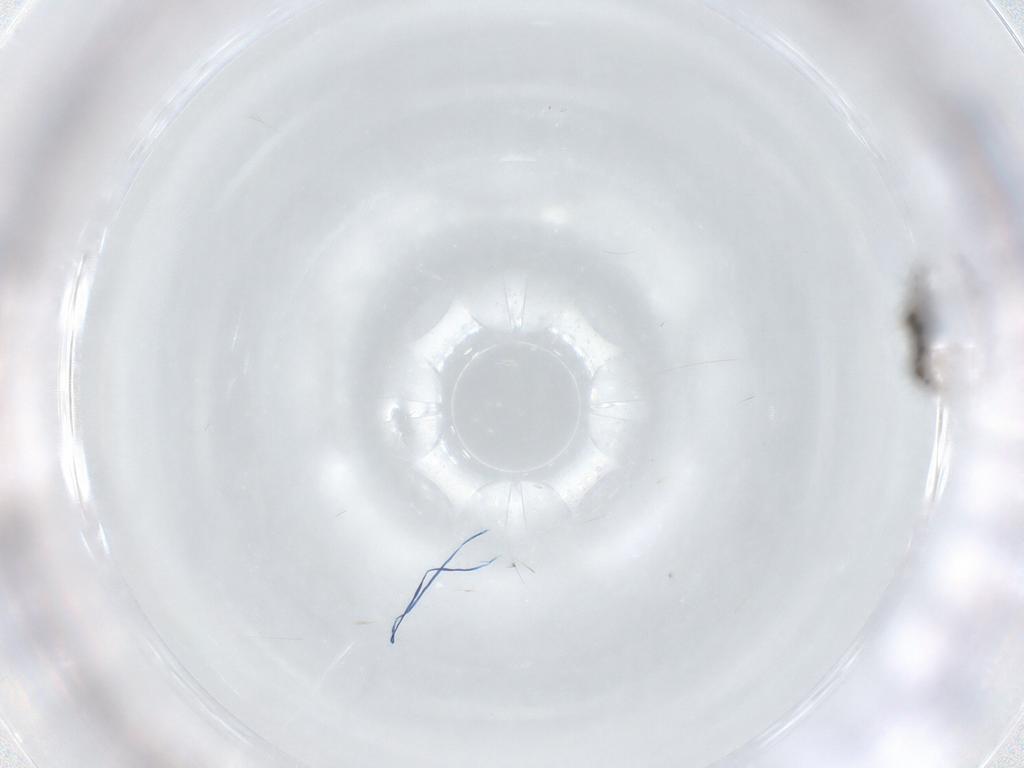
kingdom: Animalia
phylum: Arthropoda
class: Insecta
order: Hymenoptera
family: Eulophidae
